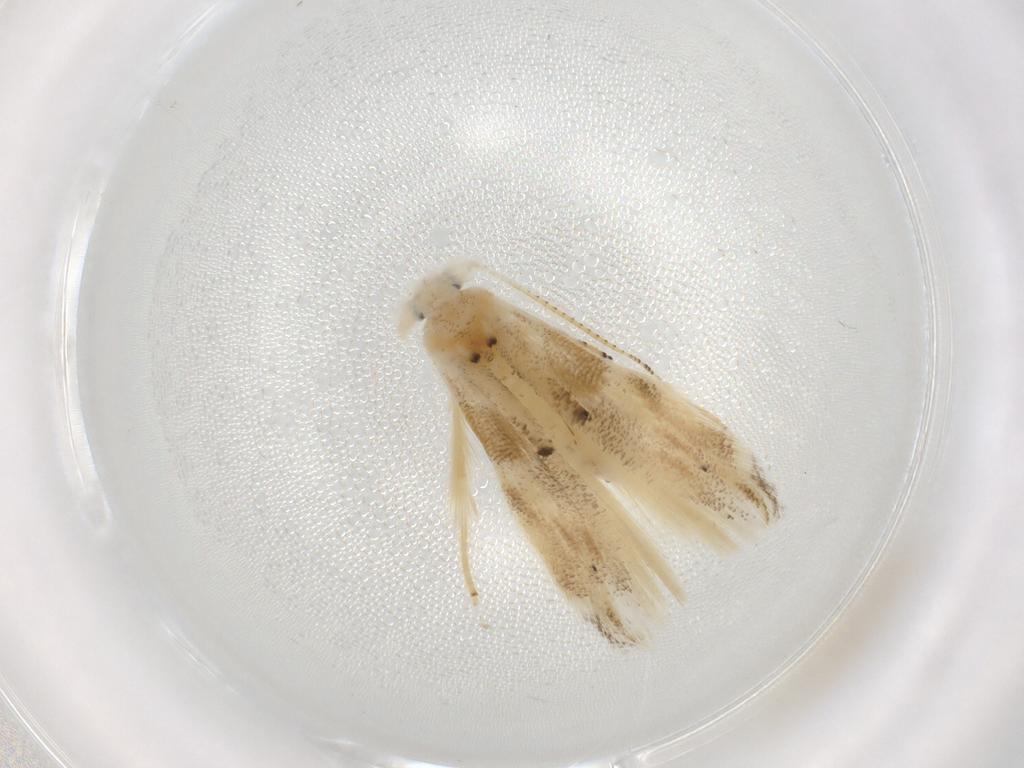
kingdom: Animalia
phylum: Arthropoda
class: Insecta
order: Lepidoptera
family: Bucculatricidae
